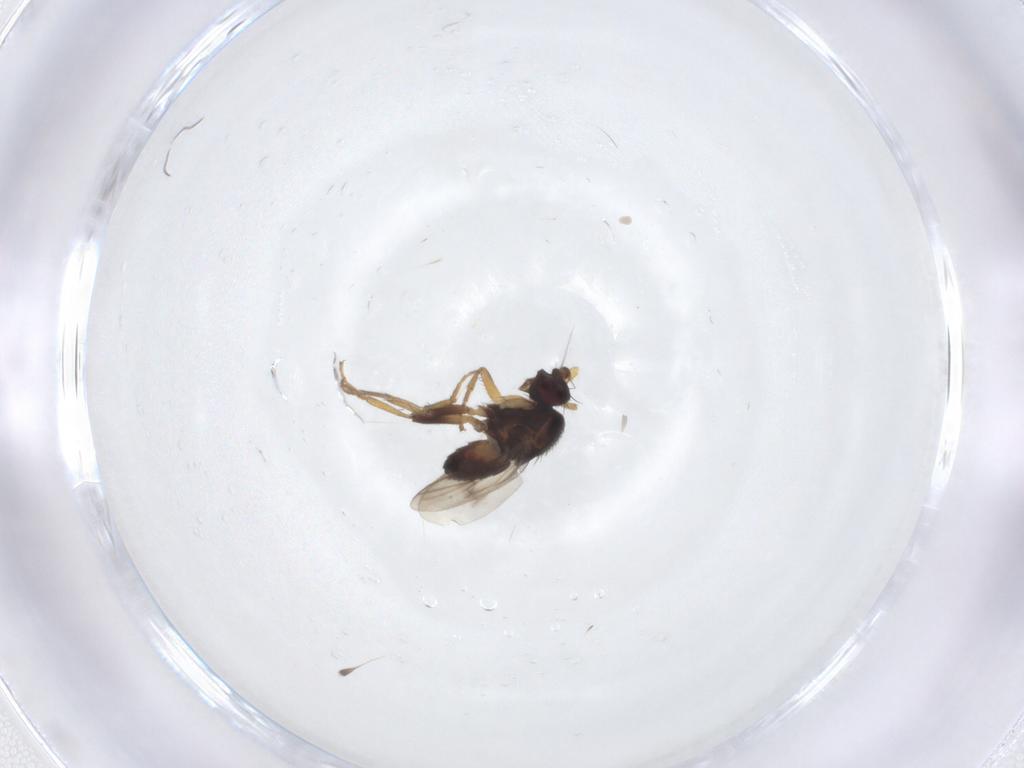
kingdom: Animalia
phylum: Arthropoda
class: Insecta
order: Diptera
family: Sphaeroceridae
